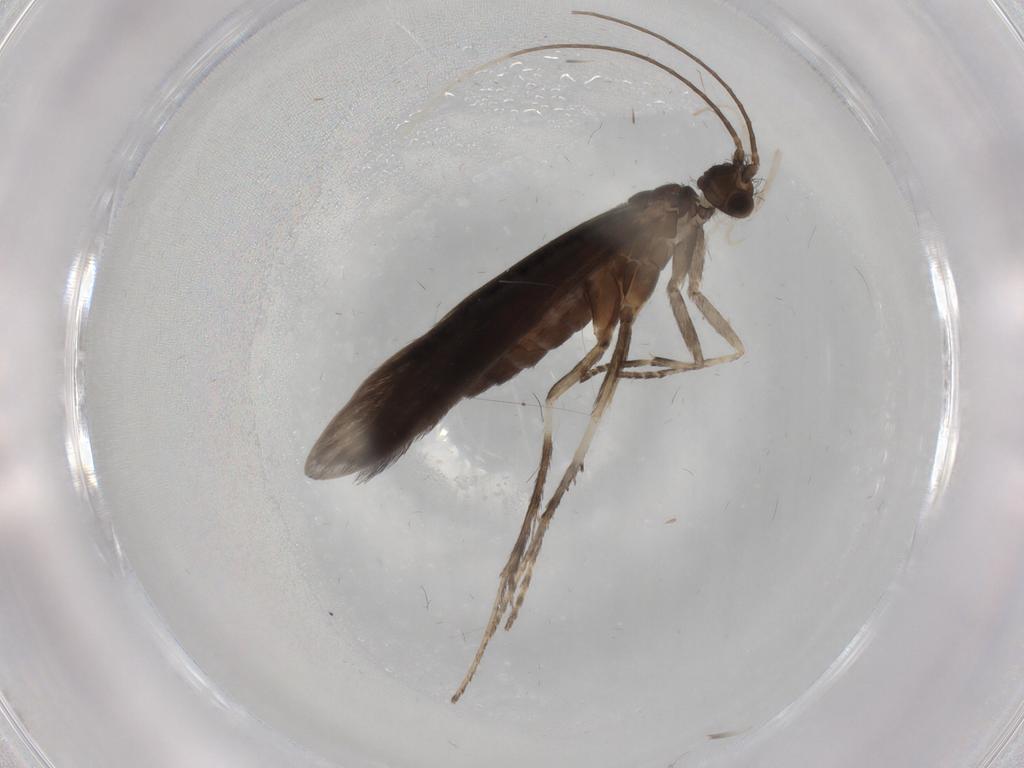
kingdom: Animalia
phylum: Arthropoda
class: Insecta
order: Trichoptera
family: Xiphocentronidae
